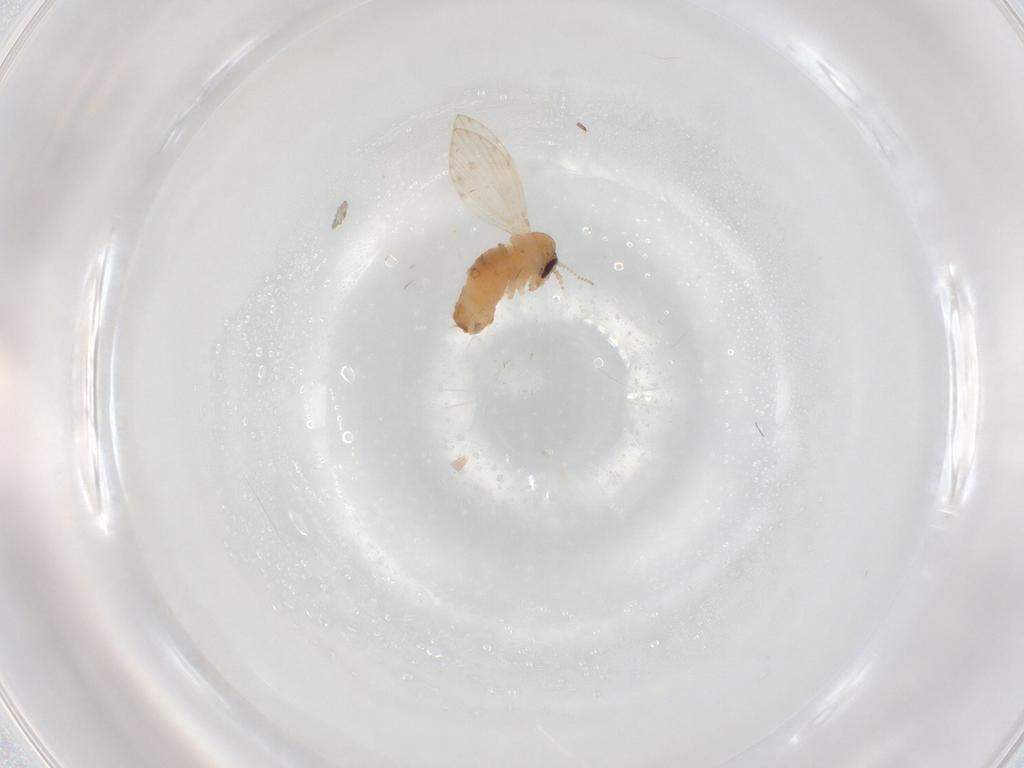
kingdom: Animalia
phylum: Arthropoda
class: Insecta
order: Diptera
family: Psychodidae
